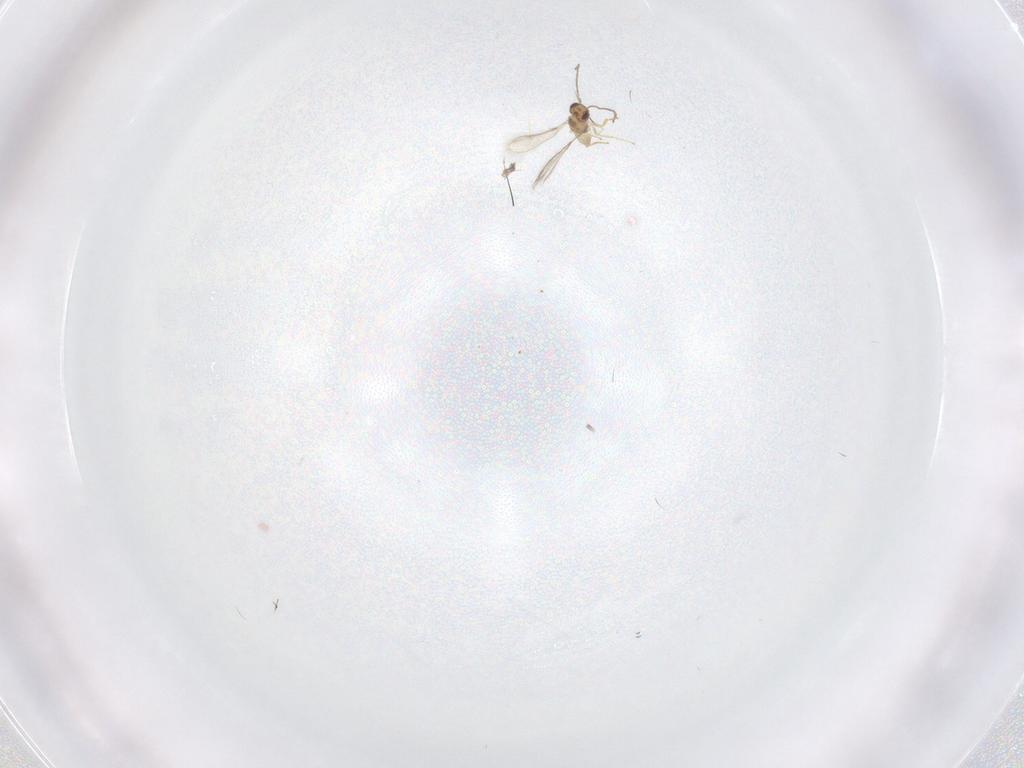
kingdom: Animalia
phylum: Arthropoda
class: Insecta
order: Hymenoptera
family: Platygastridae
